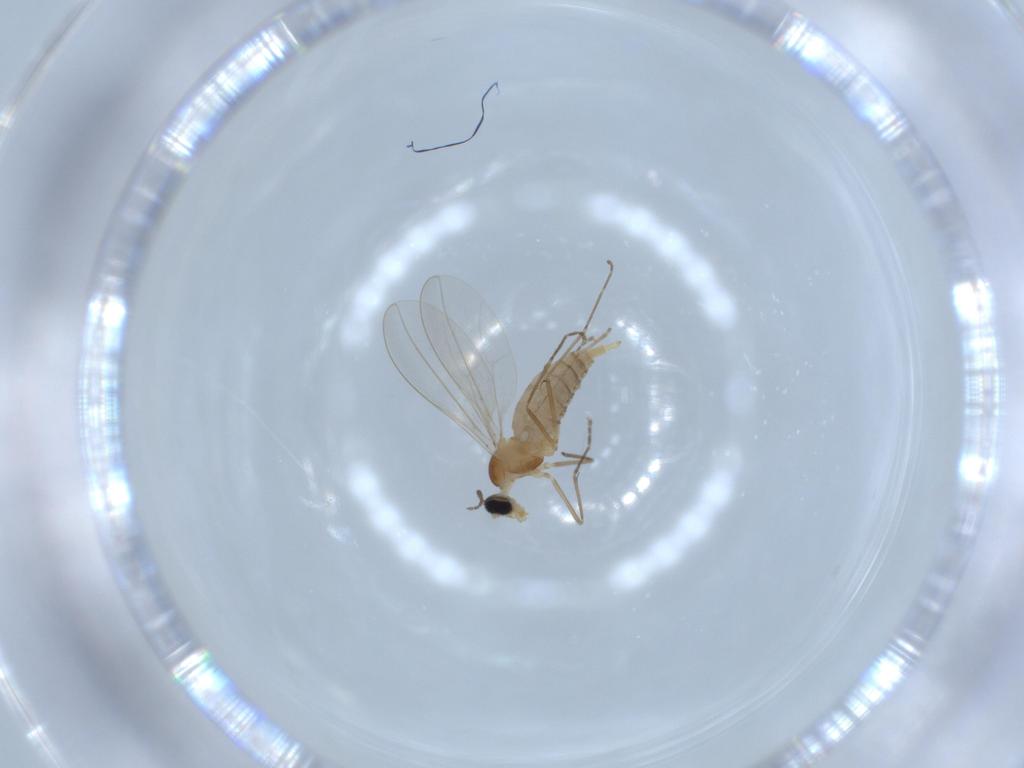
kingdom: Animalia
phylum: Arthropoda
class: Insecta
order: Diptera
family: Cecidomyiidae
